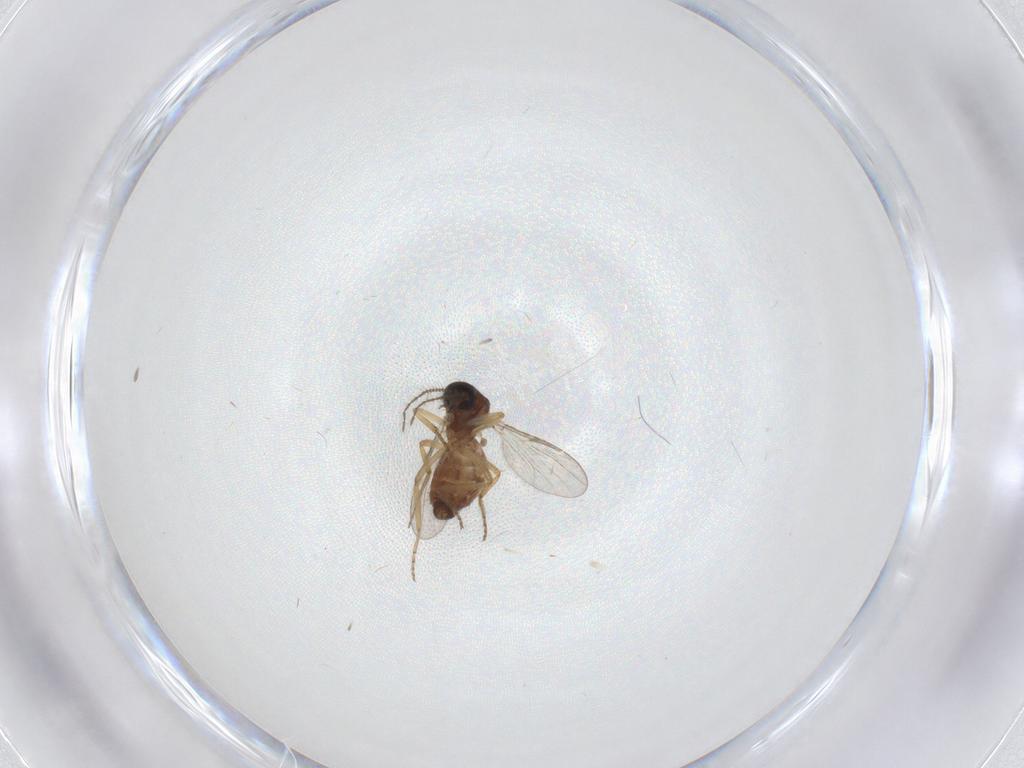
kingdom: Animalia
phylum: Arthropoda
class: Insecta
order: Diptera
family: Ceratopogonidae
